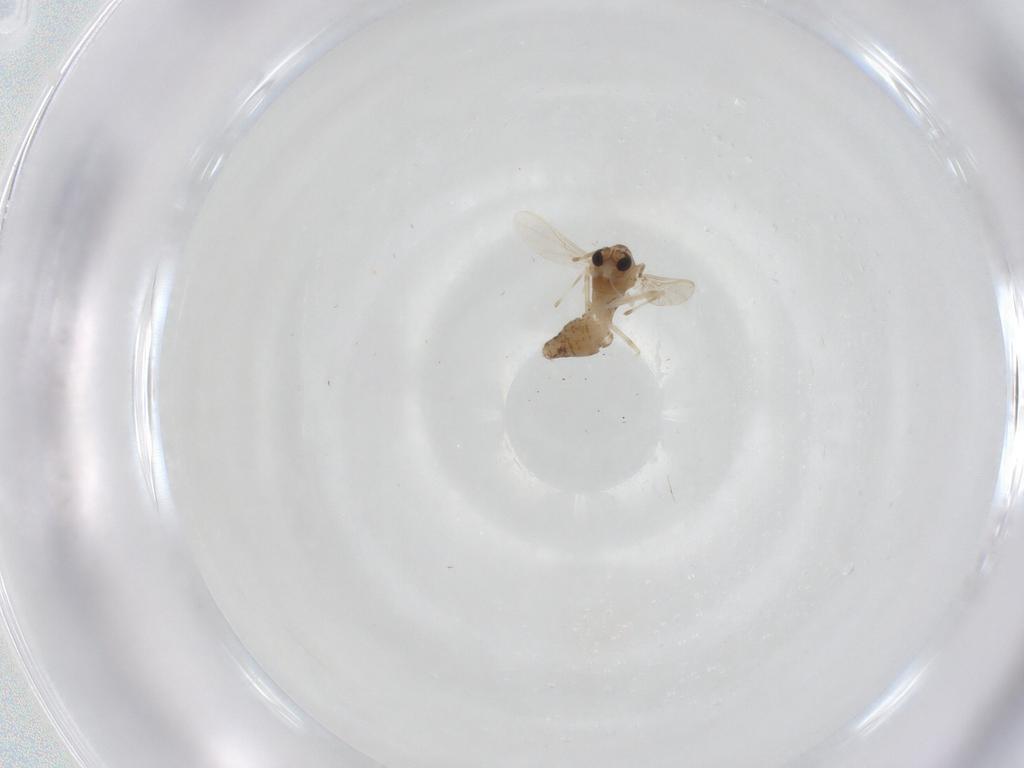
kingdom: Animalia
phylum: Arthropoda
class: Insecta
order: Diptera
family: Chironomidae
